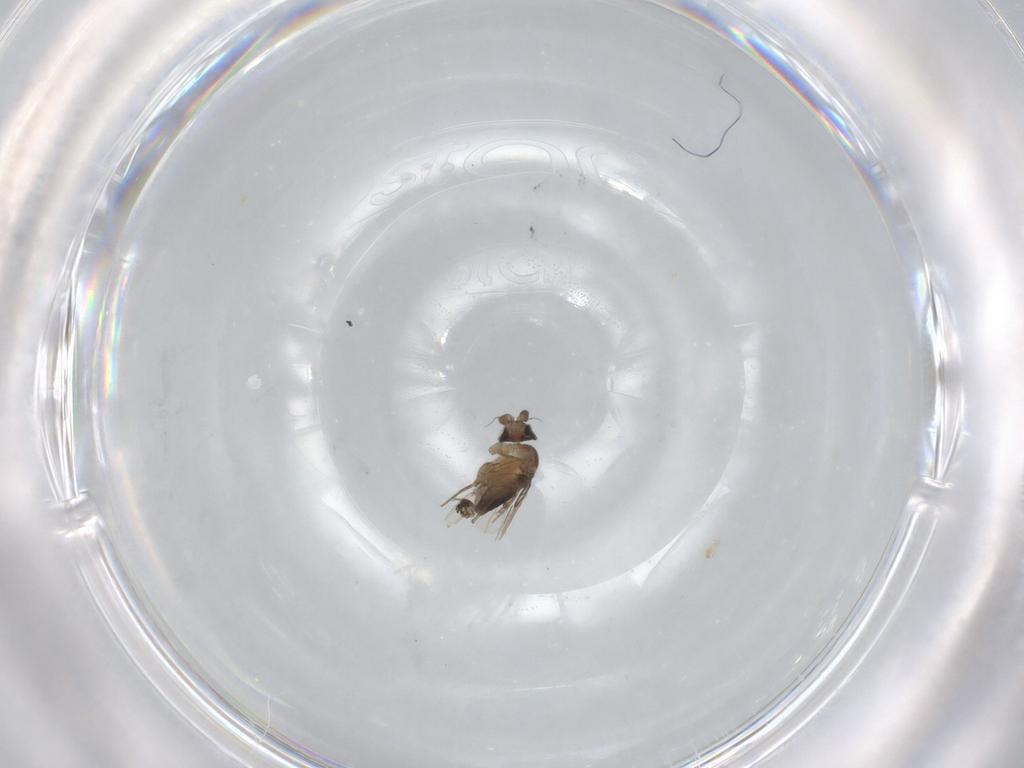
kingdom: Animalia
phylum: Arthropoda
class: Insecta
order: Diptera
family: Phoridae
